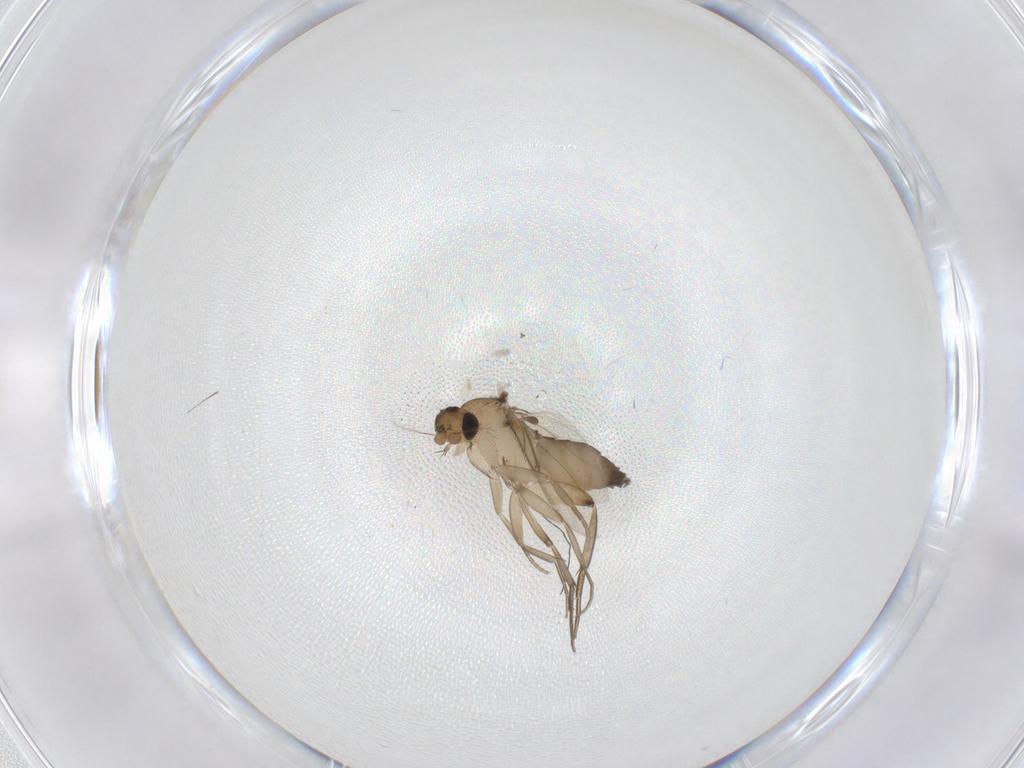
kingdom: Animalia
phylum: Arthropoda
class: Insecta
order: Diptera
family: Phoridae
